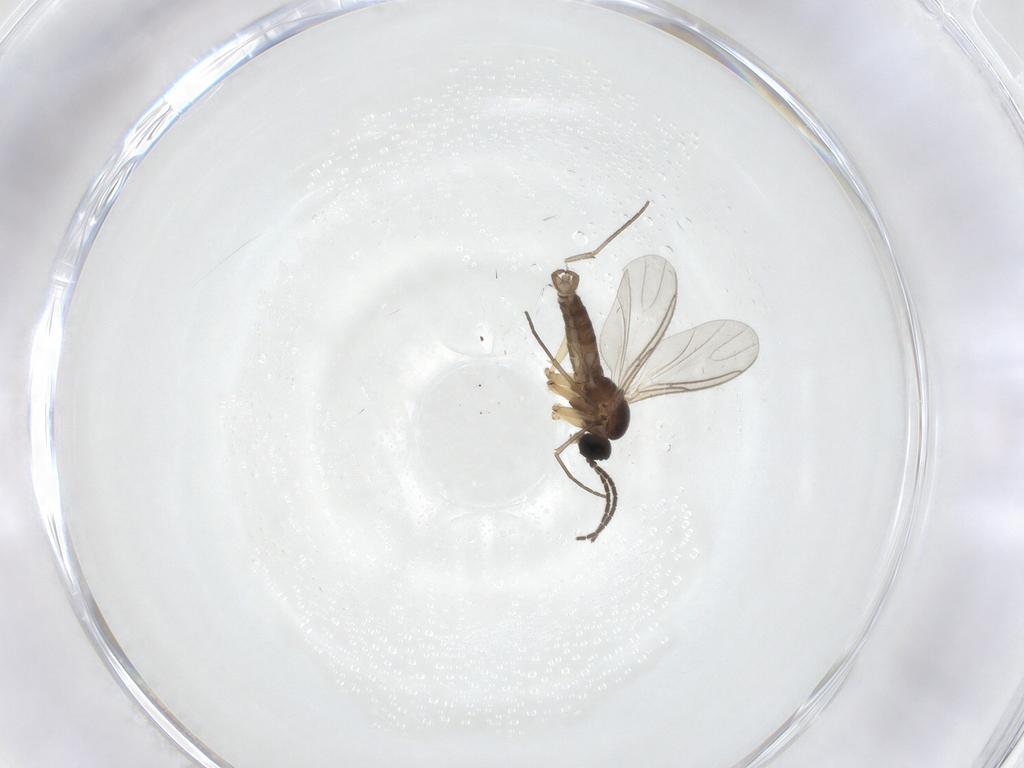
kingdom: Animalia
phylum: Arthropoda
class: Insecta
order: Diptera
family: Sciaridae
